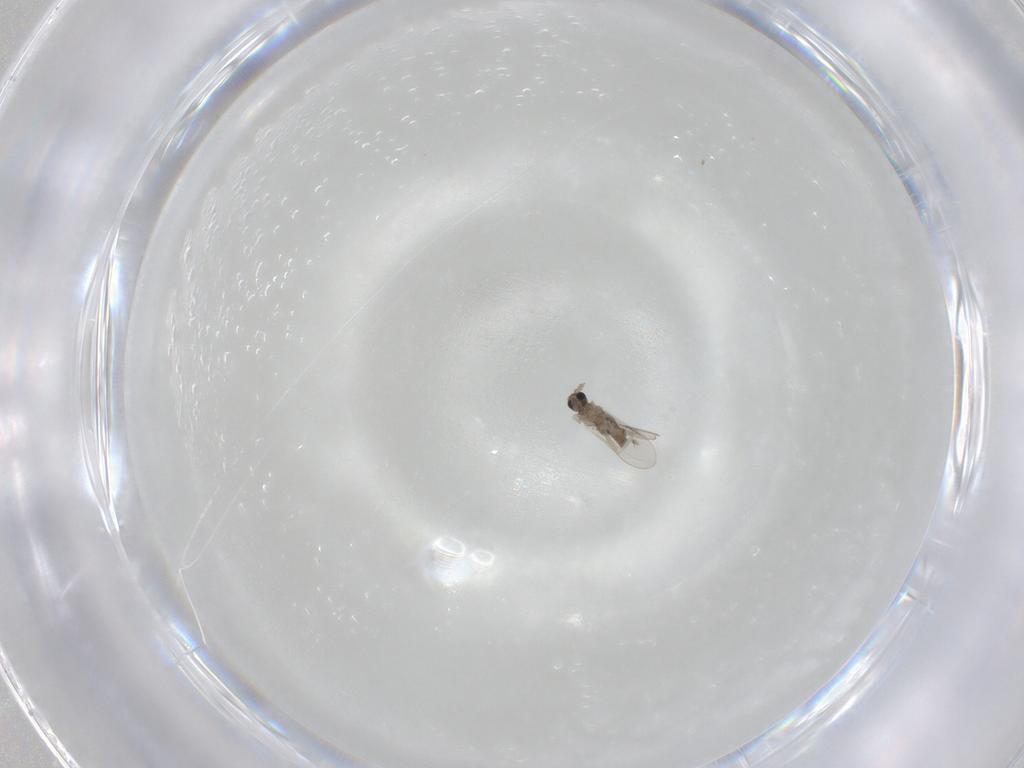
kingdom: Animalia
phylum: Arthropoda
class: Insecta
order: Diptera
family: Cecidomyiidae
